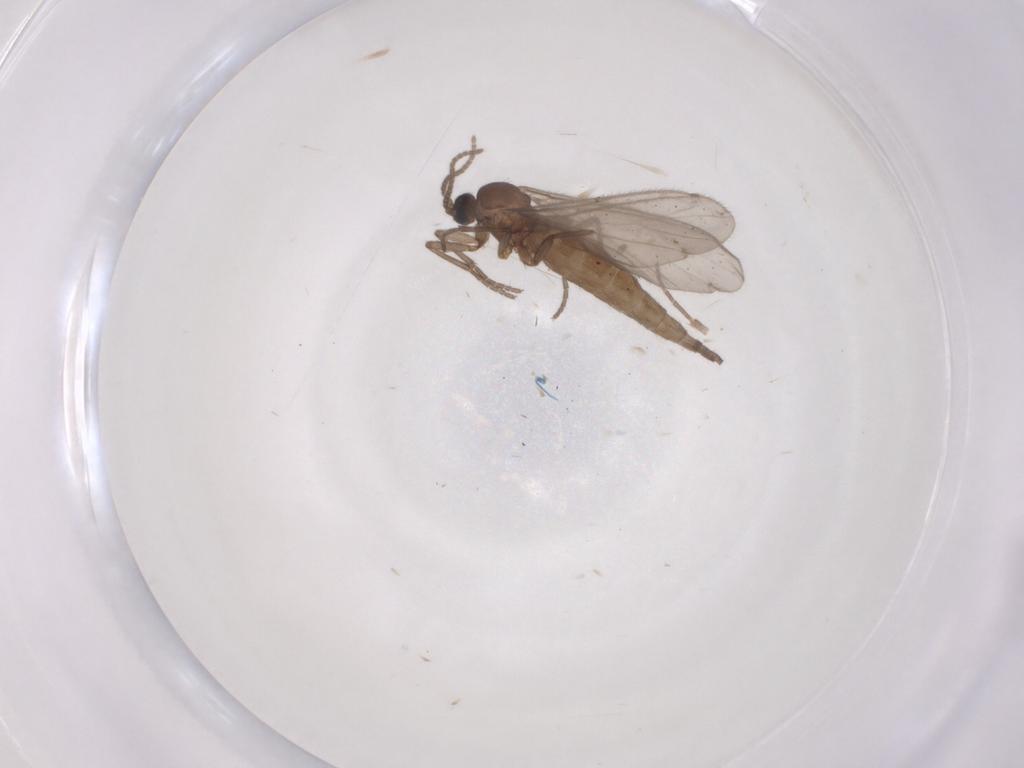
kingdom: Animalia
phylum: Arthropoda
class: Insecta
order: Diptera
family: Sciaridae
